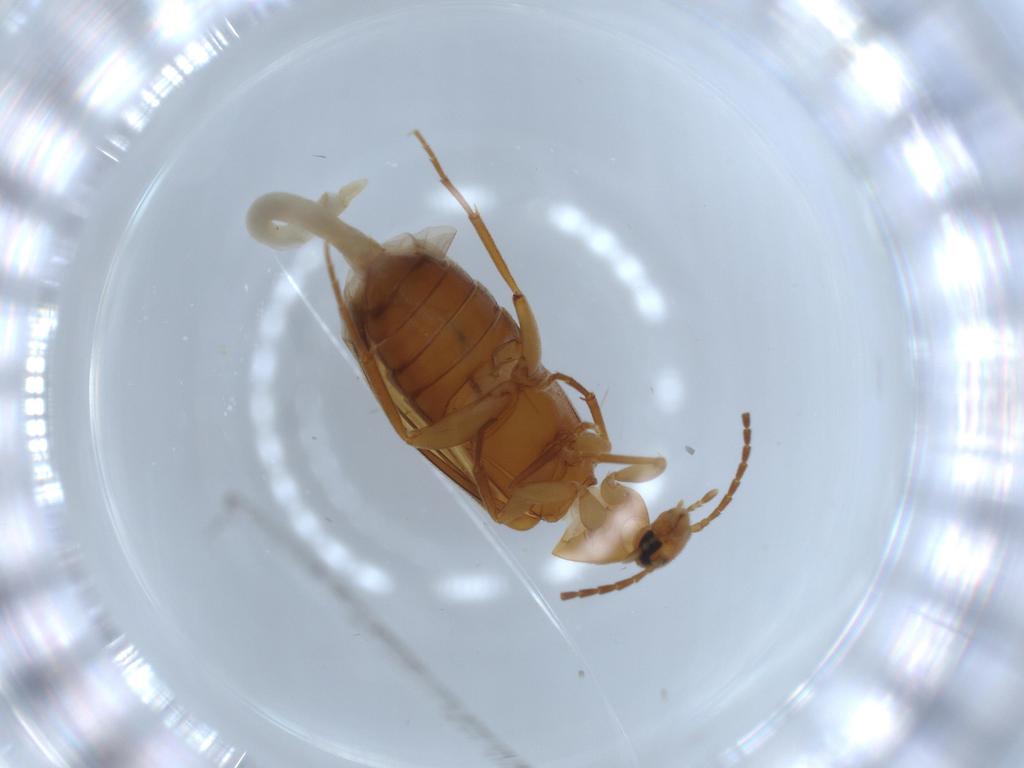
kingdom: Animalia
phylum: Arthropoda
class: Insecta
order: Coleoptera
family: Scraptiidae
